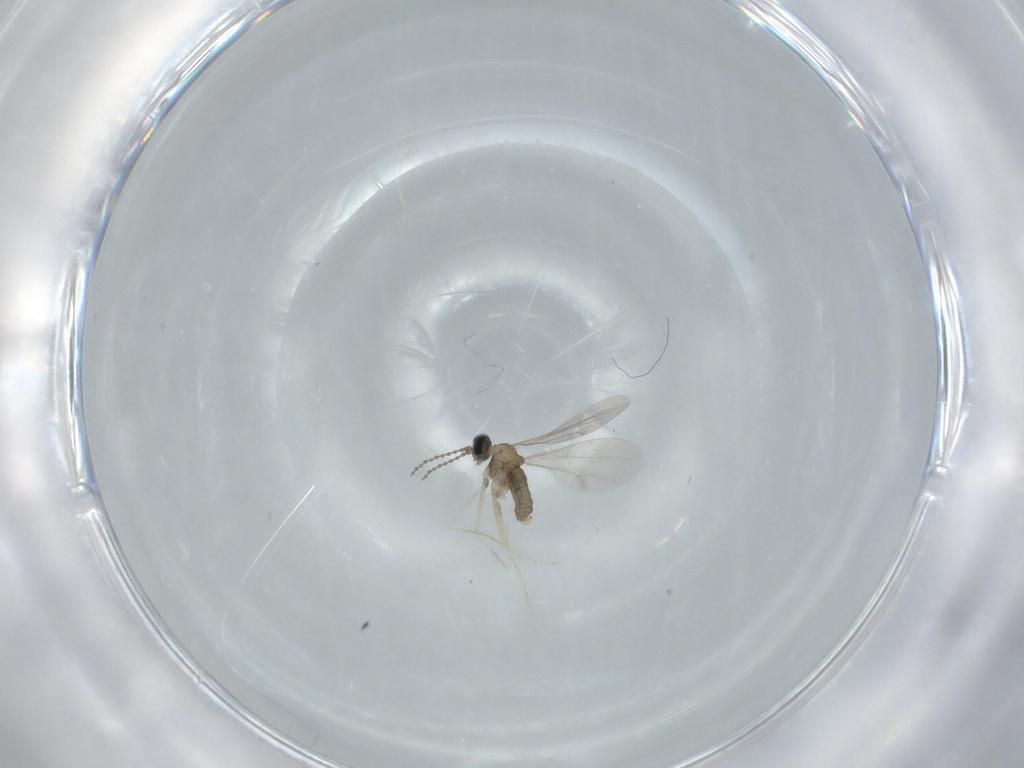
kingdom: Animalia
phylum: Arthropoda
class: Insecta
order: Diptera
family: Cecidomyiidae
